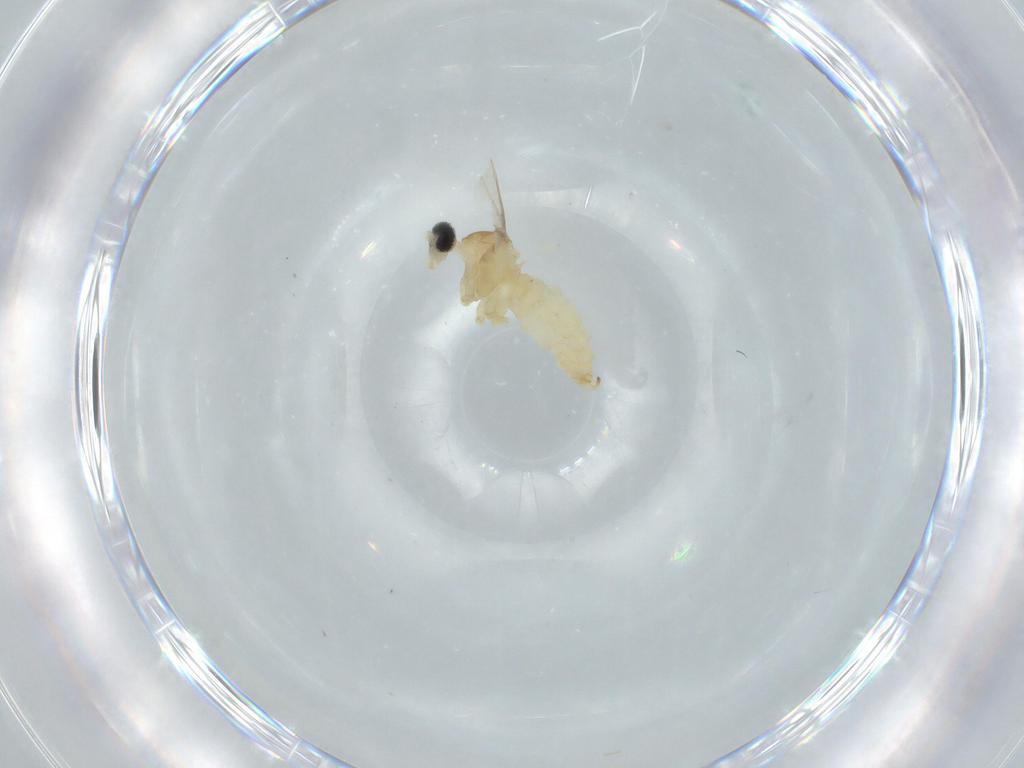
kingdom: Animalia
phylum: Arthropoda
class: Insecta
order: Diptera
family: Cecidomyiidae
